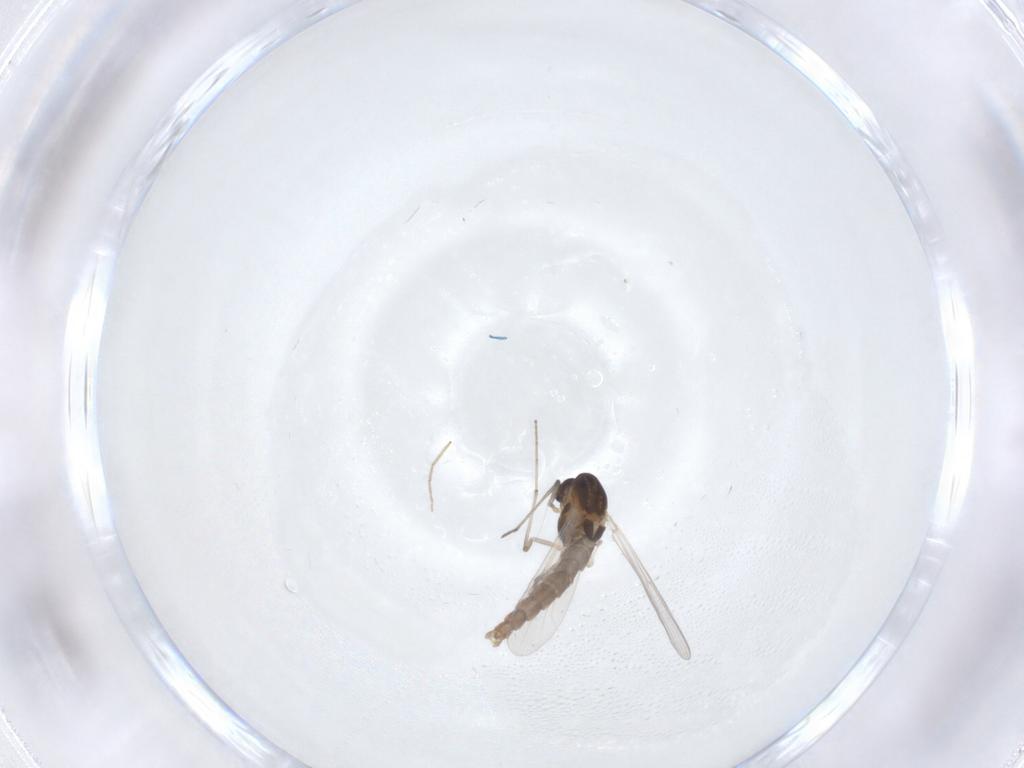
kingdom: Animalia
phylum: Arthropoda
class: Insecta
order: Diptera
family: Chironomidae
